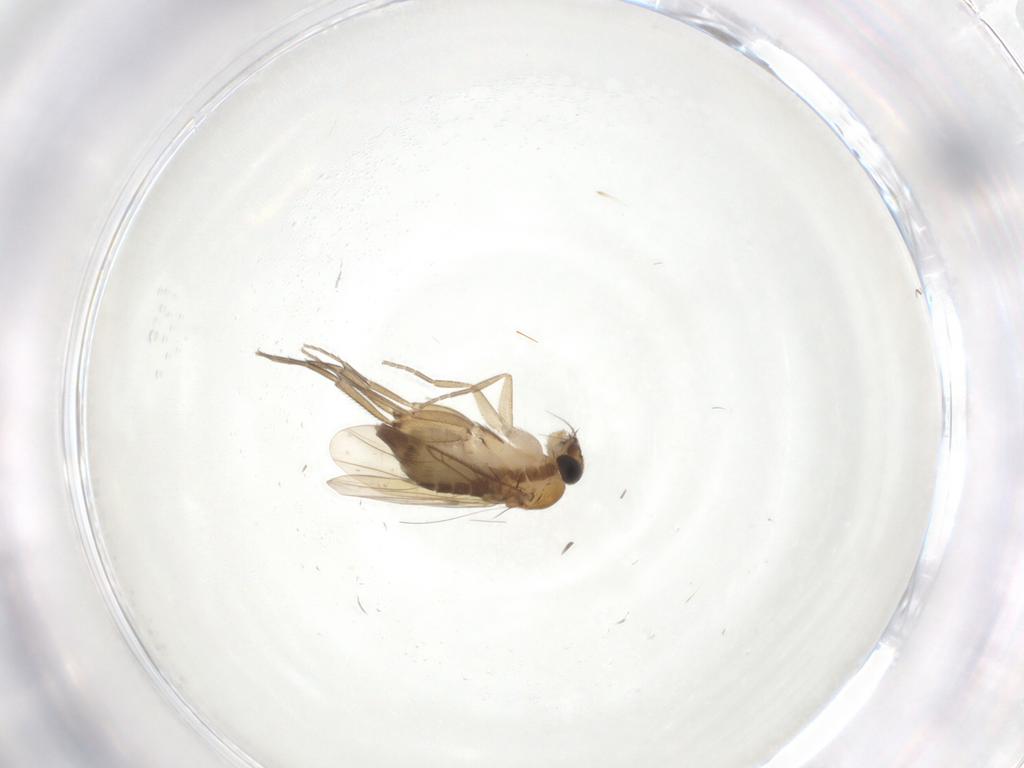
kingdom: Animalia
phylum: Arthropoda
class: Insecta
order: Diptera
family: Phoridae
